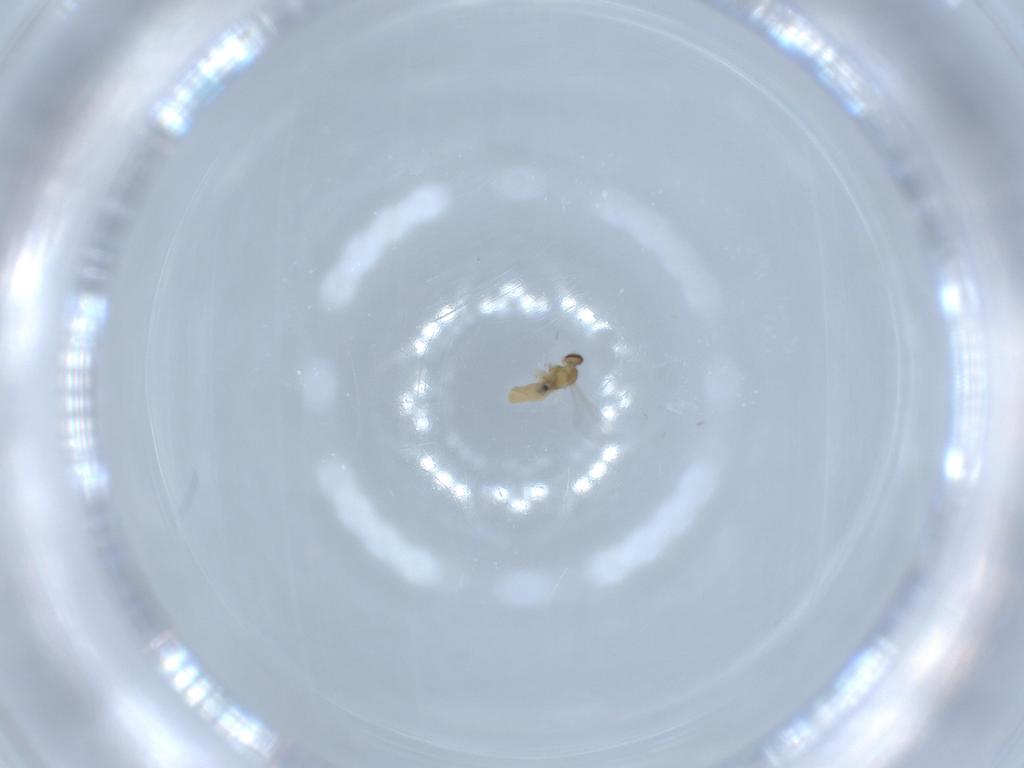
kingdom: Animalia
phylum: Arthropoda
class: Insecta
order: Diptera
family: Cecidomyiidae
